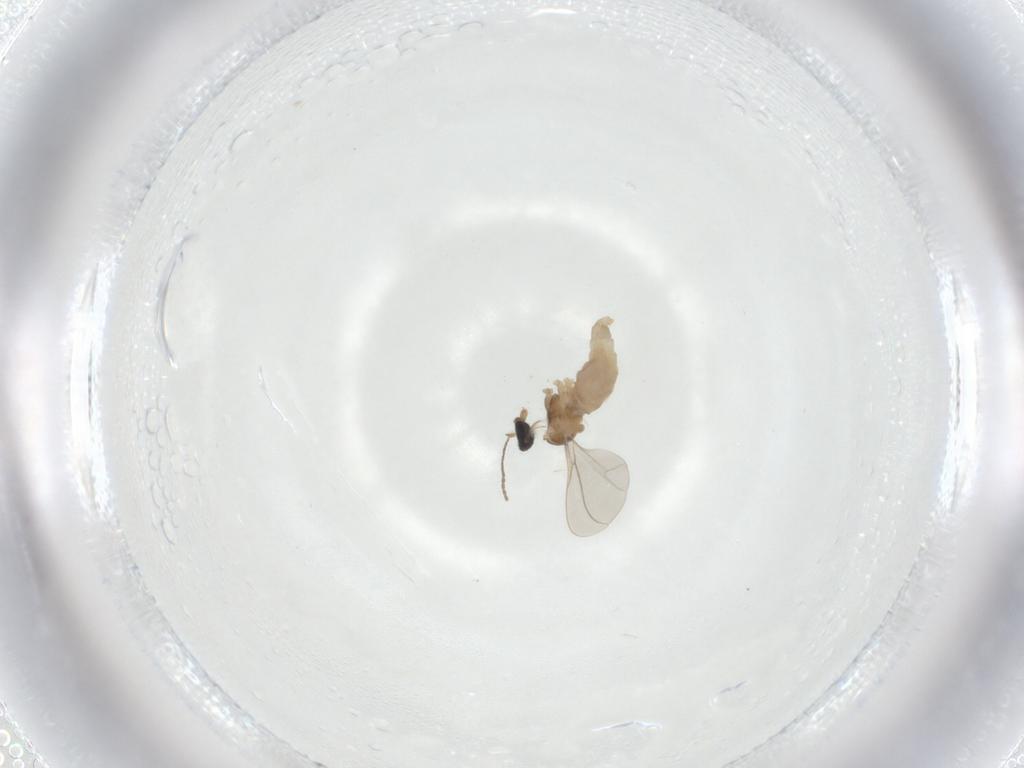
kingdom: Animalia
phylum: Arthropoda
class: Insecta
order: Diptera
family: Cecidomyiidae
